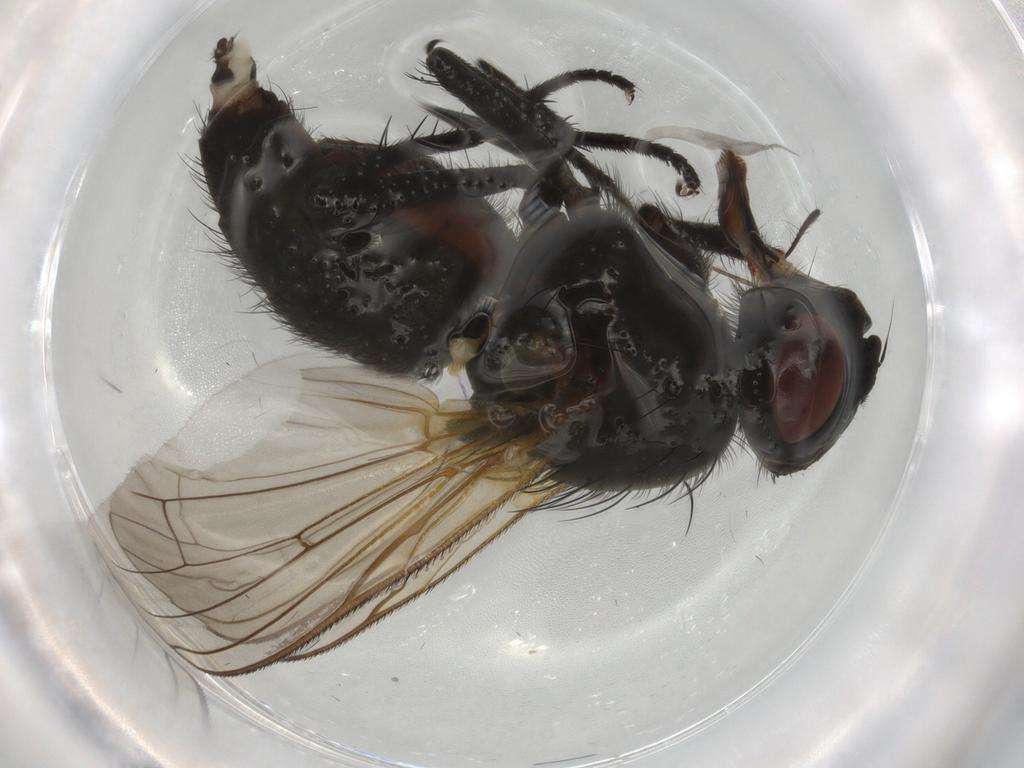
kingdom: Animalia
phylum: Arthropoda
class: Insecta
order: Diptera
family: Anthomyiidae
